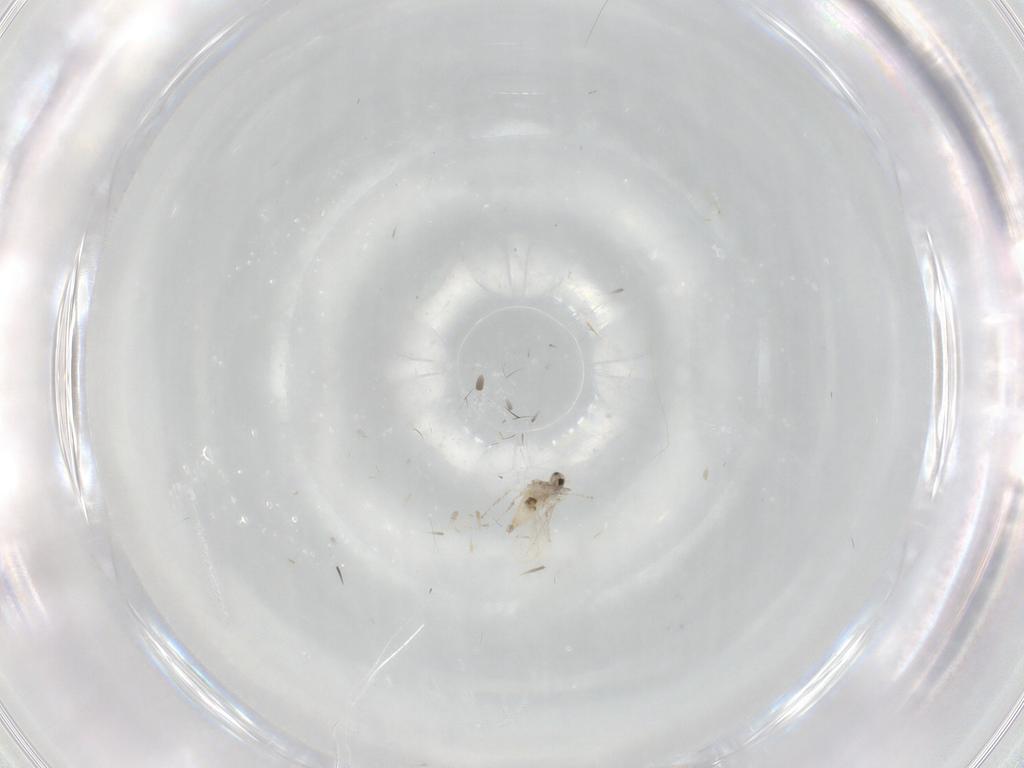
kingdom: Animalia
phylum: Arthropoda
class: Insecta
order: Diptera
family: Cecidomyiidae
